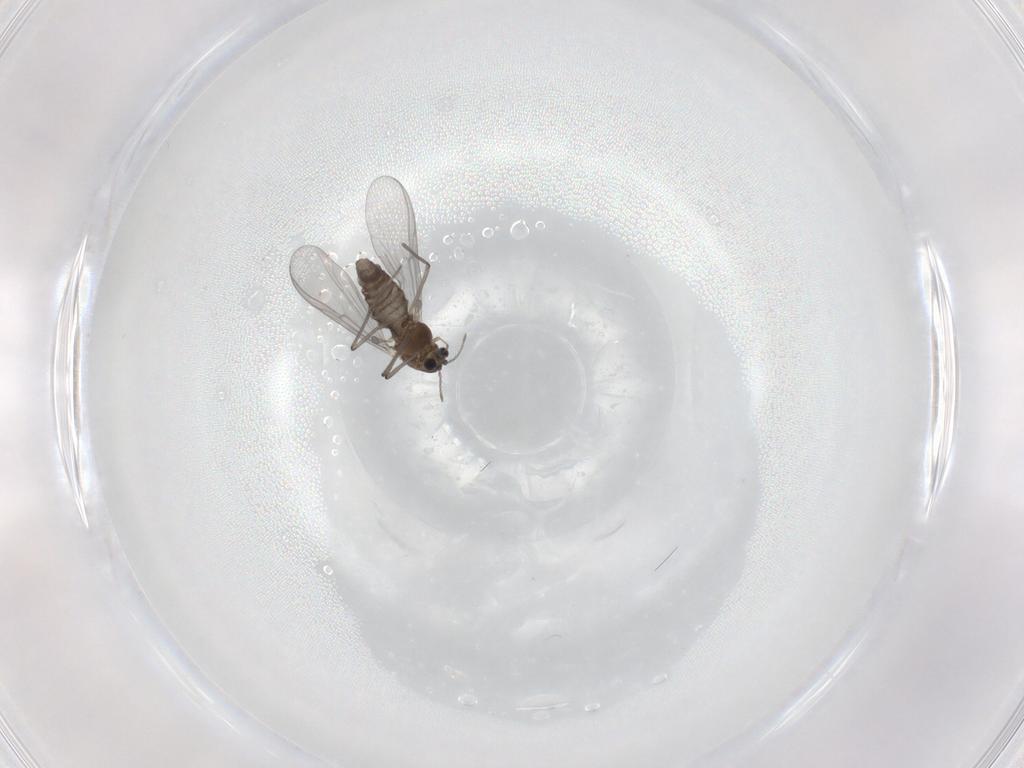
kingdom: Animalia
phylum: Arthropoda
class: Insecta
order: Diptera
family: Chironomidae
